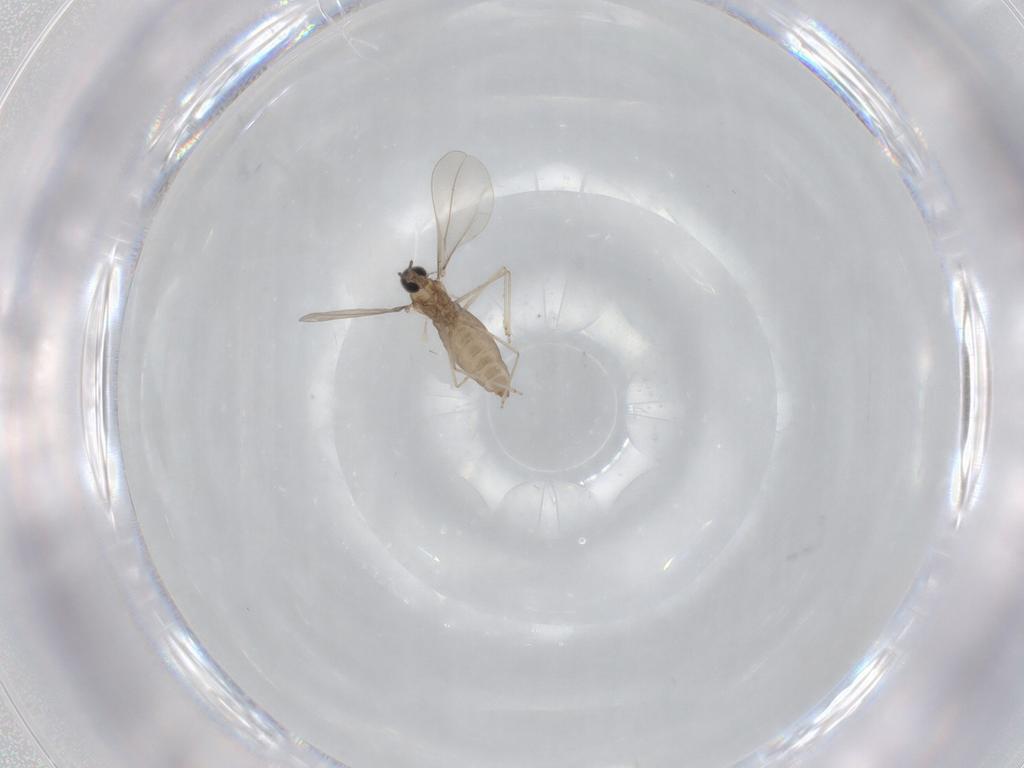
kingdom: Animalia
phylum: Arthropoda
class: Insecta
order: Diptera
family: Cecidomyiidae
